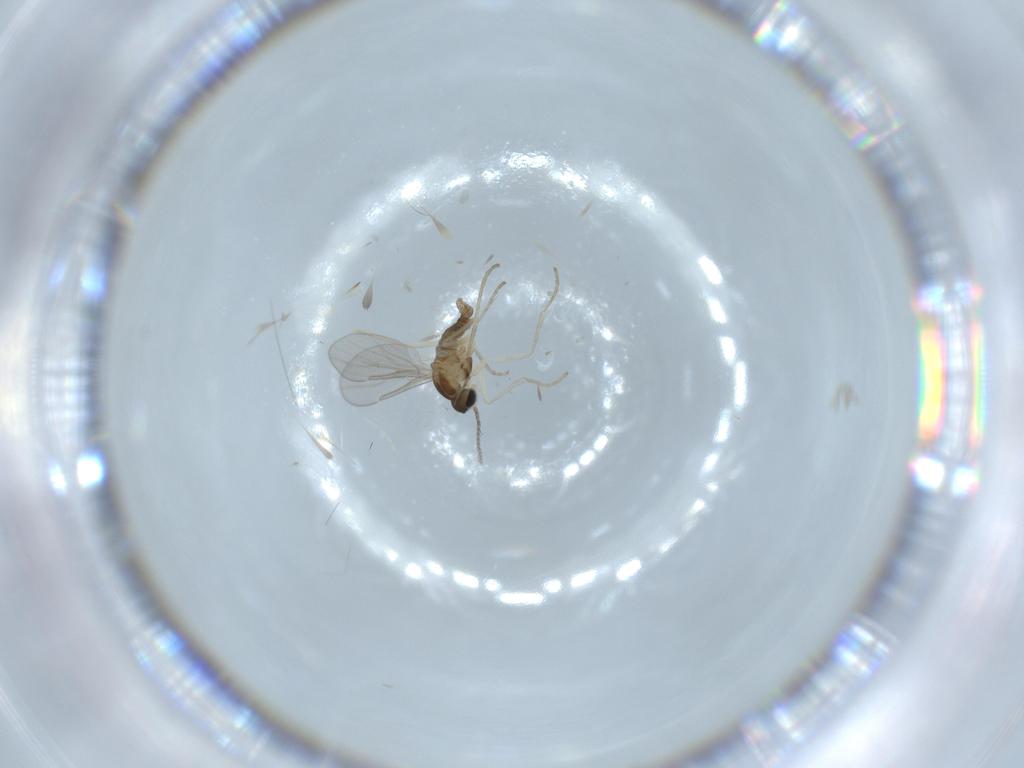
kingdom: Animalia
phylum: Arthropoda
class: Insecta
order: Diptera
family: Cecidomyiidae
